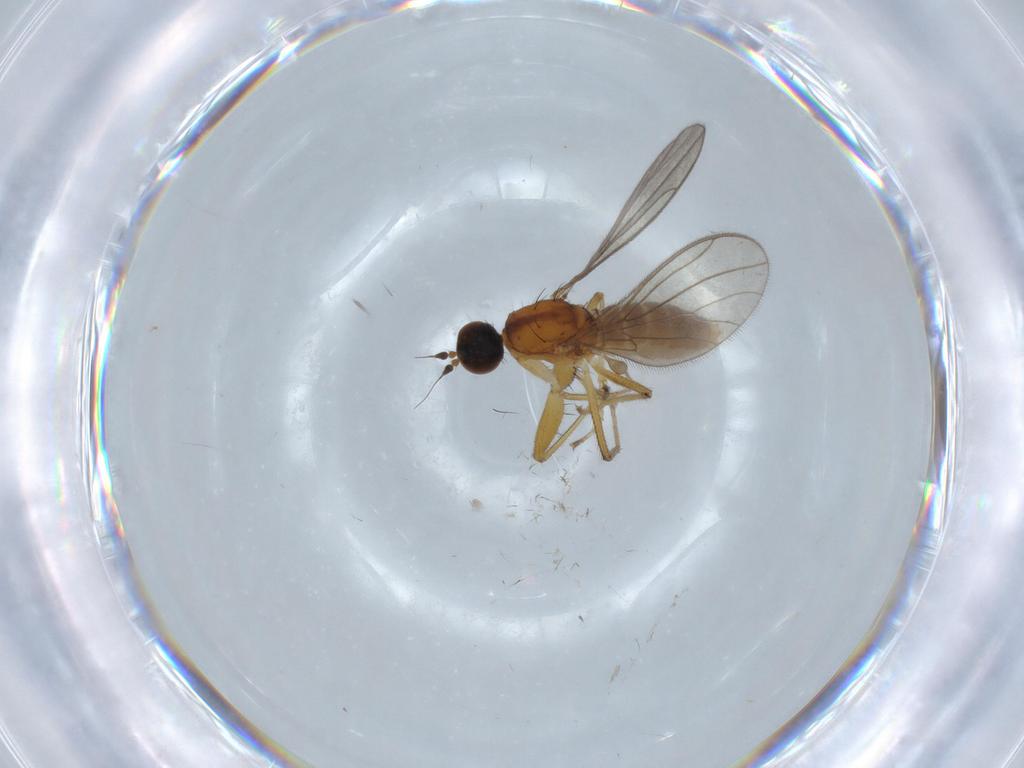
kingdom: Animalia
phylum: Arthropoda
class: Insecta
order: Diptera
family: Empididae
